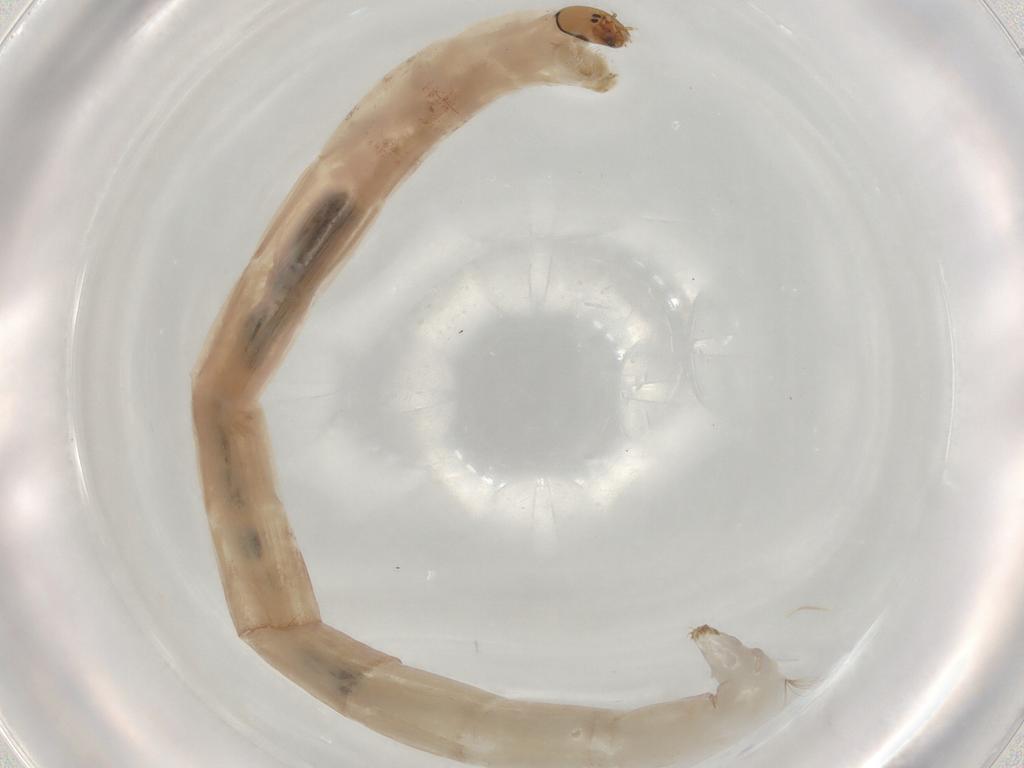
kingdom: Animalia
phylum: Arthropoda
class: Insecta
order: Diptera
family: Chironomidae
